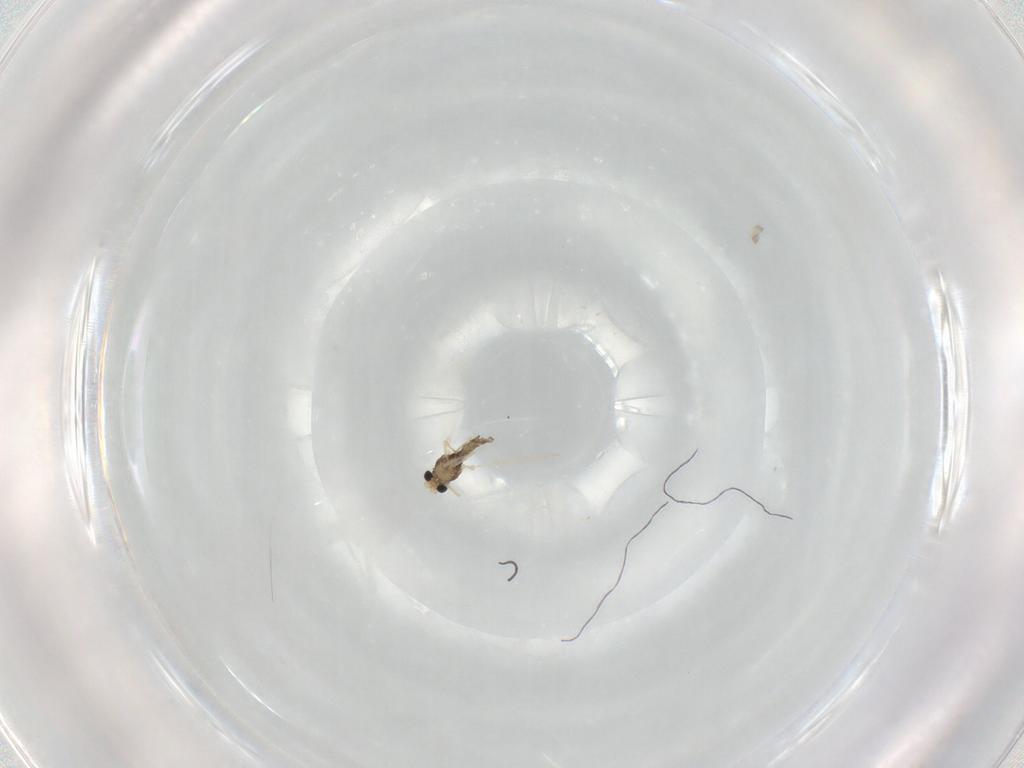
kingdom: Animalia
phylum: Arthropoda
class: Insecta
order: Diptera
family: Chironomidae
